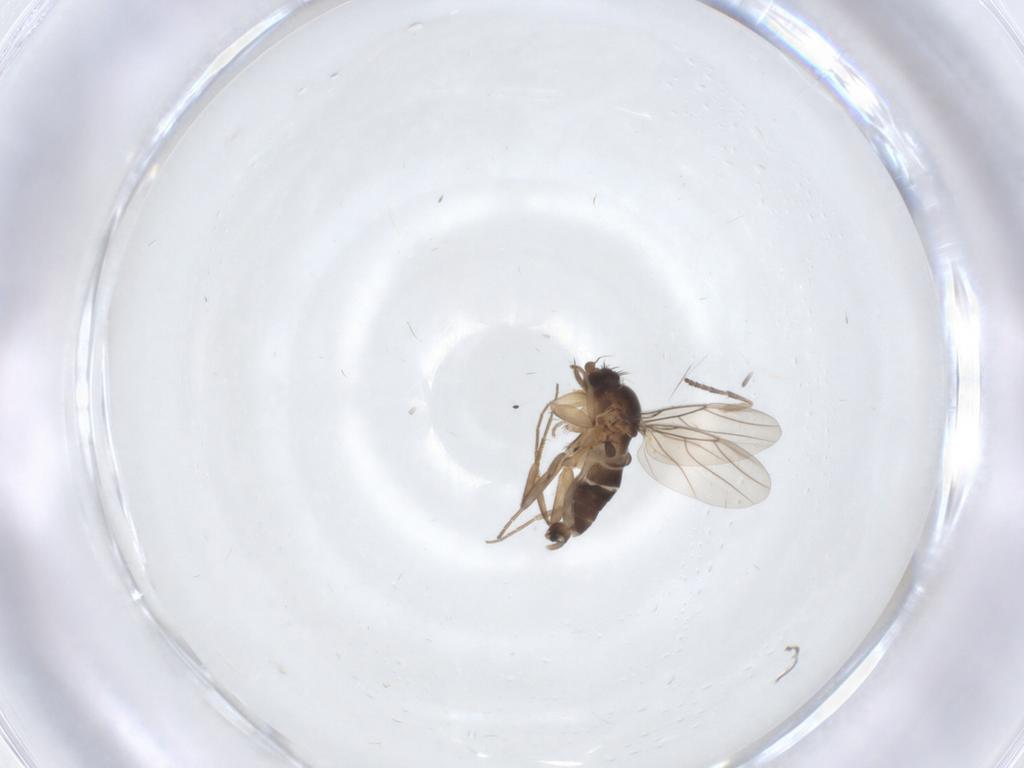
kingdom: Animalia
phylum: Arthropoda
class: Insecta
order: Diptera
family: Phoridae
